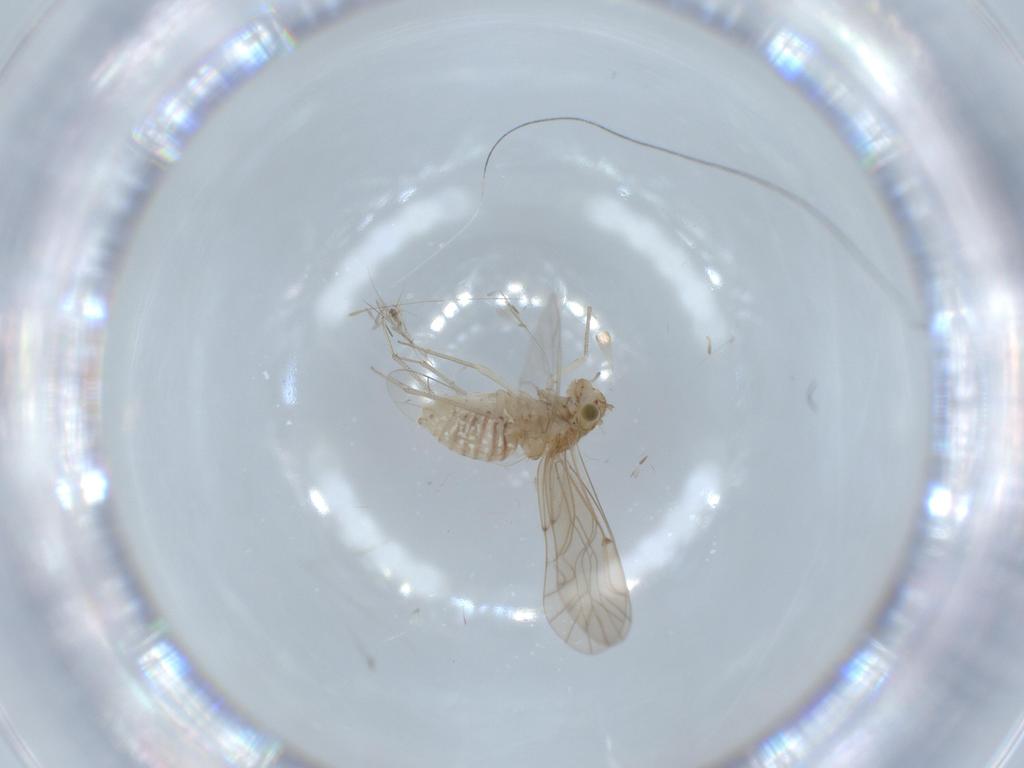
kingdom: Animalia
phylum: Arthropoda
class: Insecta
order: Psocodea
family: Lachesillidae
